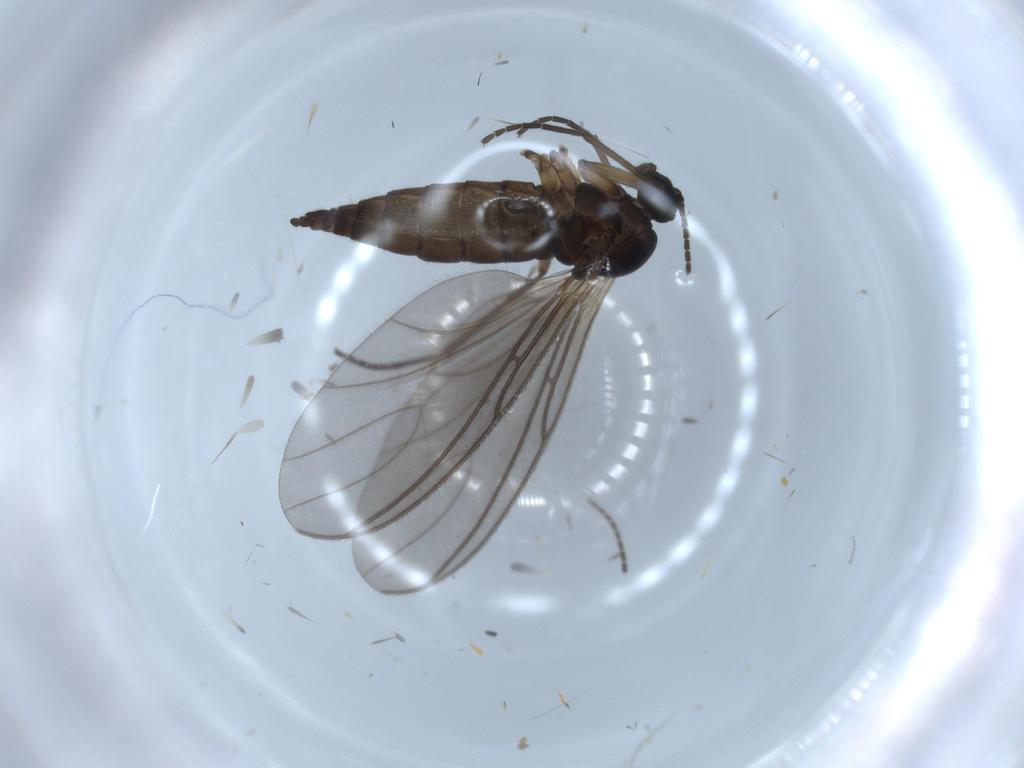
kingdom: Animalia
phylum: Arthropoda
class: Insecta
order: Diptera
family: Sciaridae
